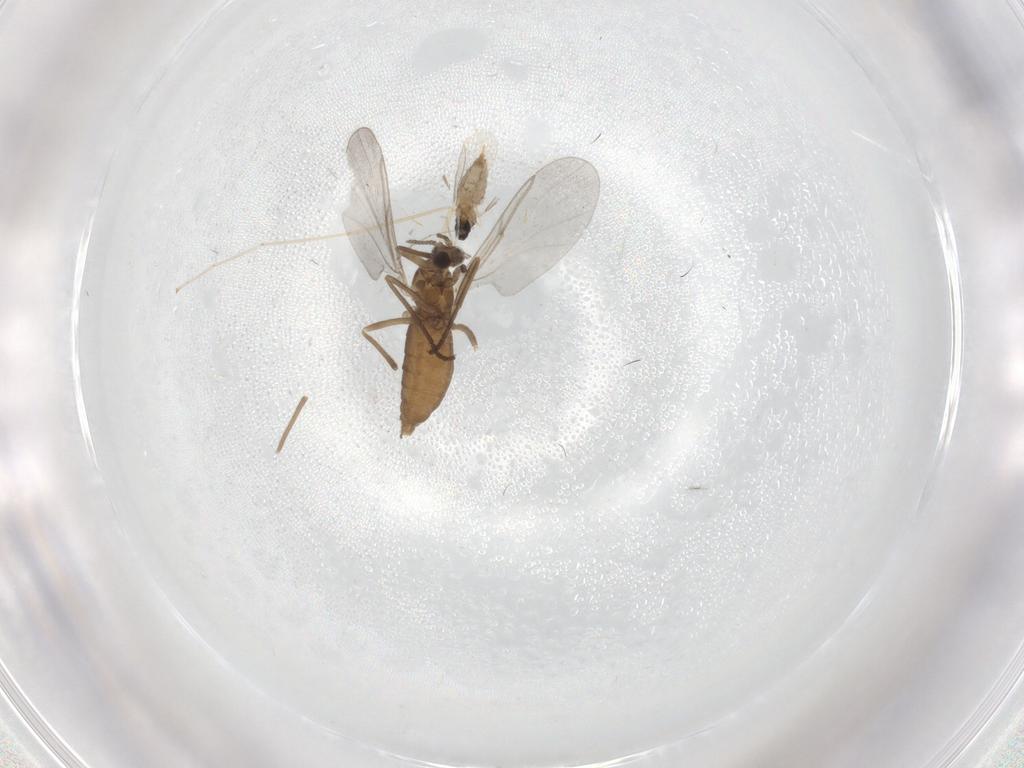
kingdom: Animalia
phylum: Arthropoda
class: Insecta
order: Diptera
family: Cecidomyiidae
